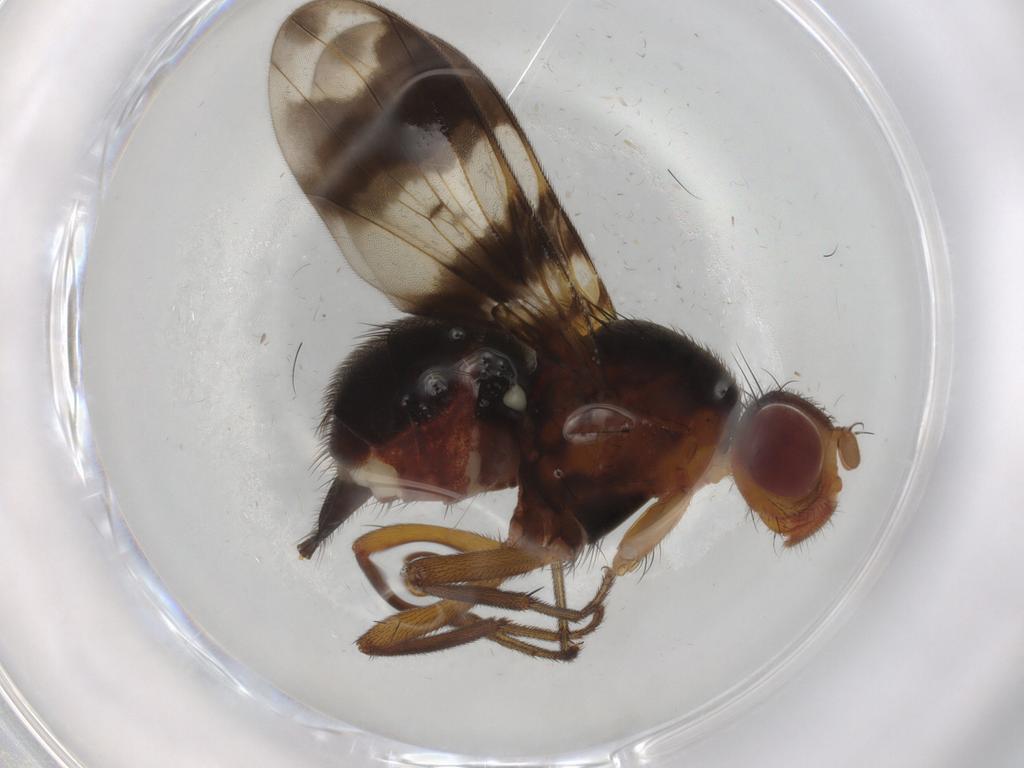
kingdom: Animalia
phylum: Arthropoda
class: Insecta
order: Diptera
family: Richardiidae
